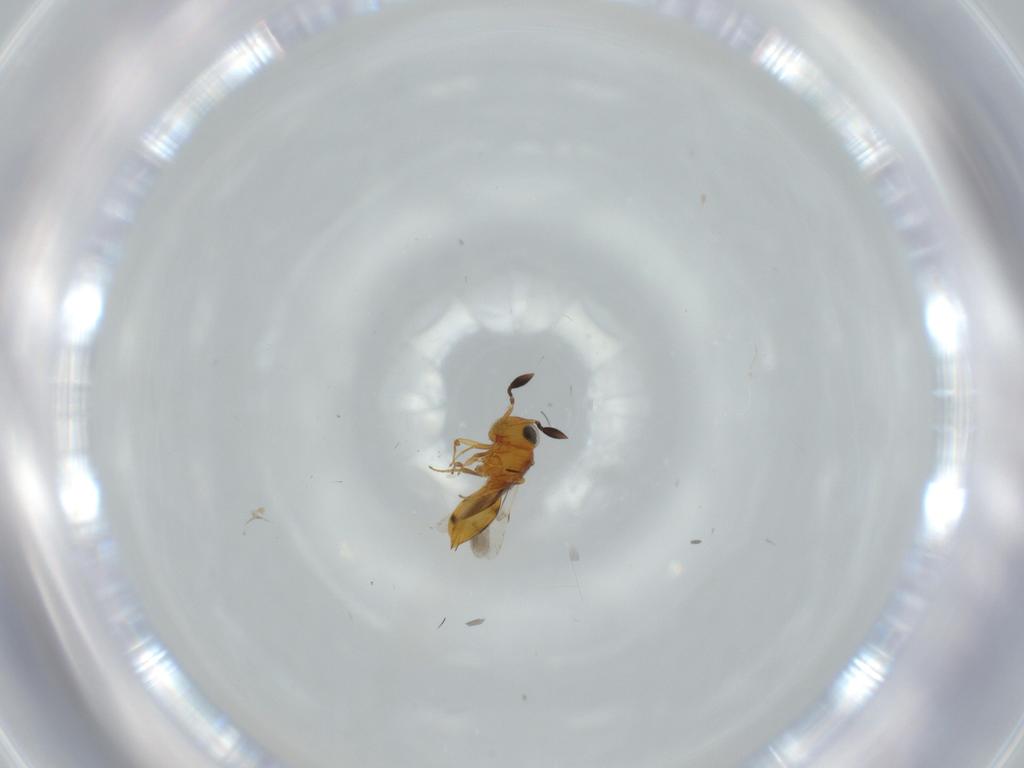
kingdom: Animalia
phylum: Arthropoda
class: Insecta
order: Hymenoptera
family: Scelionidae
